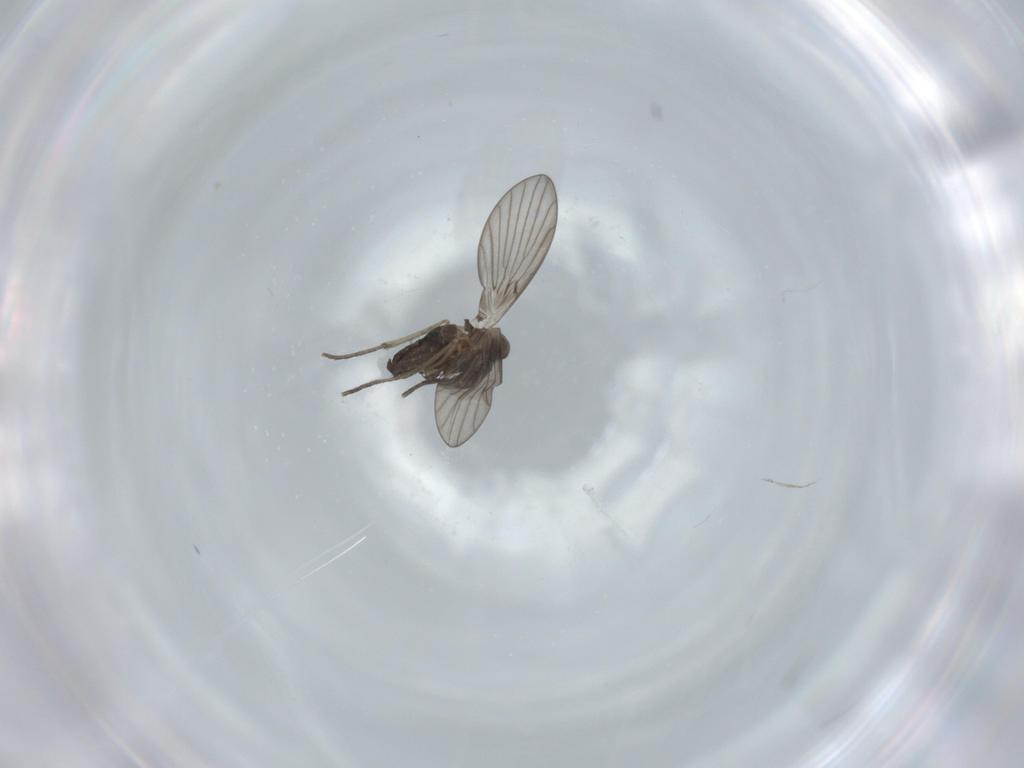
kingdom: Animalia
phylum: Arthropoda
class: Insecta
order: Diptera
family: Psychodidae
